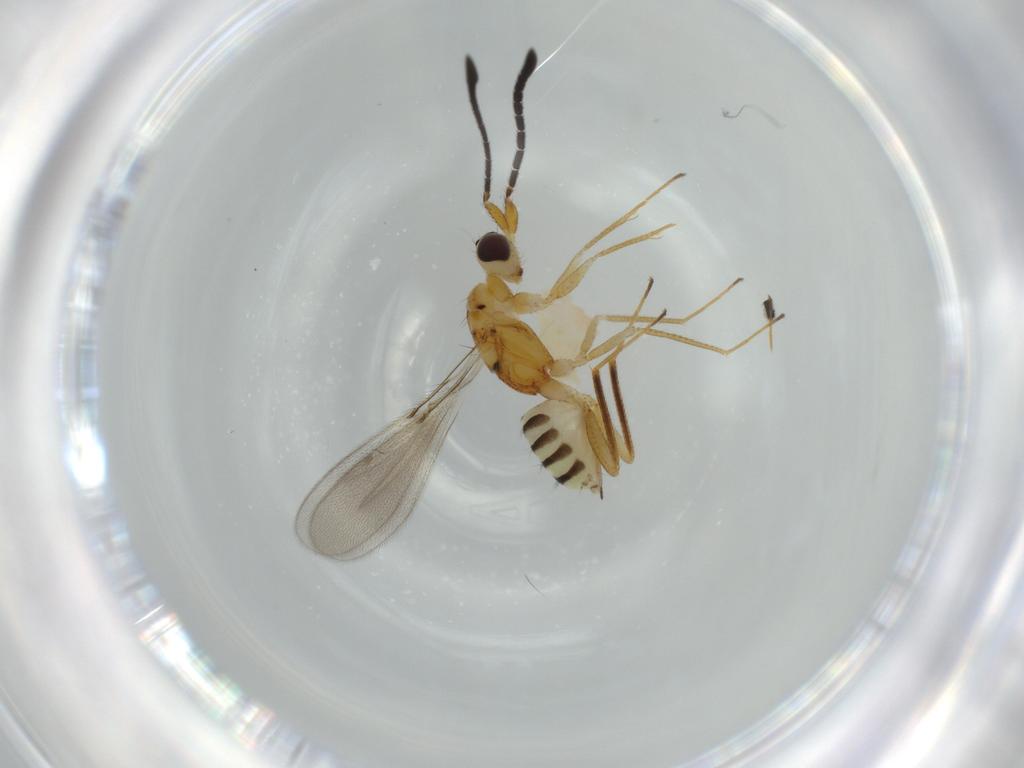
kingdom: Animalia
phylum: Arthropoda
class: Insecta
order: Hymenoptera
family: Mymaridae
